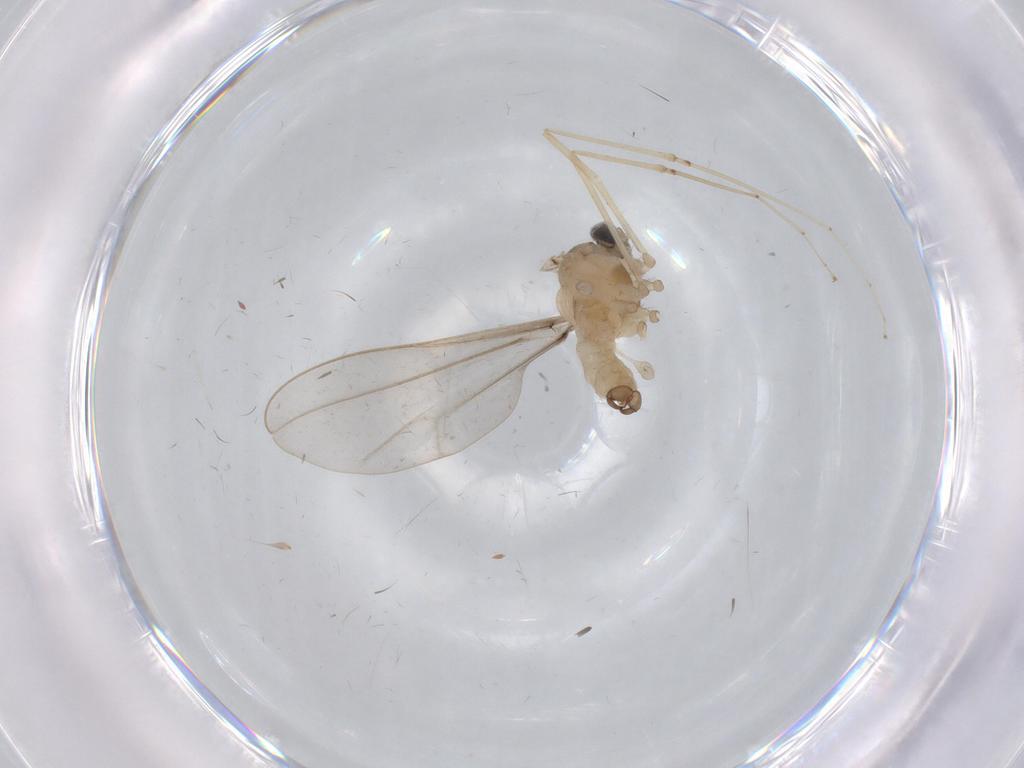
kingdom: Animalia
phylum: Arthropoda
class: Insecta
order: Diptera
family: Cecidomyiidae
